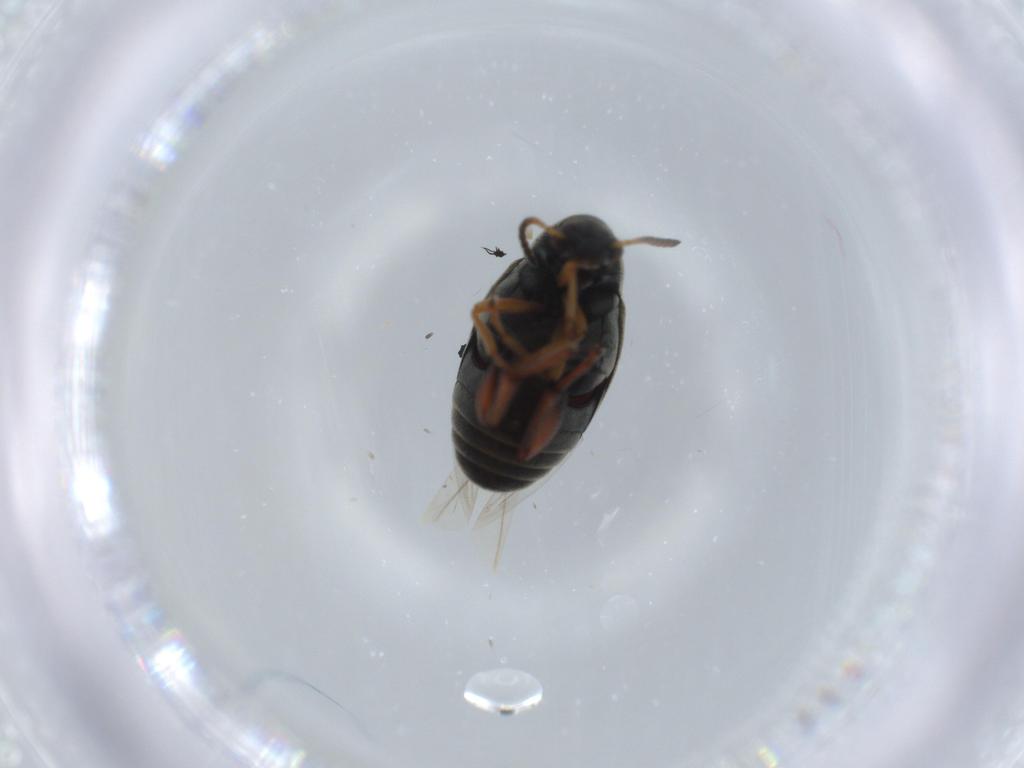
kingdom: Animalia
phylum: Arthropoda
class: Insecta
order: Coleoptera
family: Chrysomelidae
